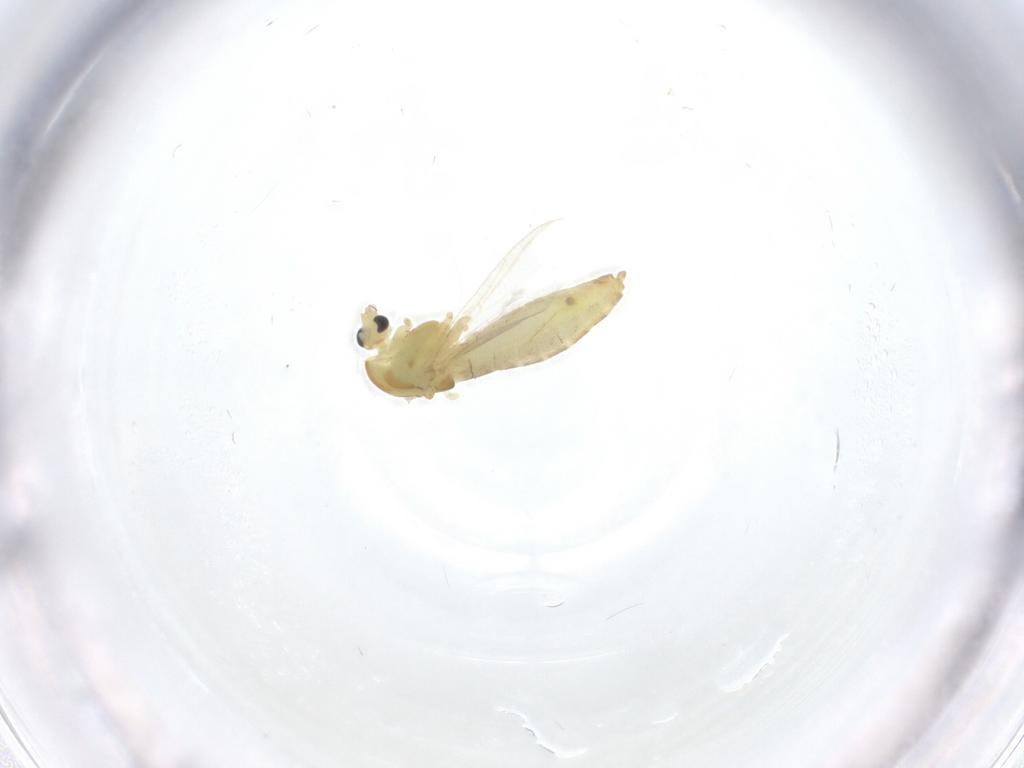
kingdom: Animalia
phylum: Arthropoda
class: Insecta
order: Diptera
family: Chironomidae
